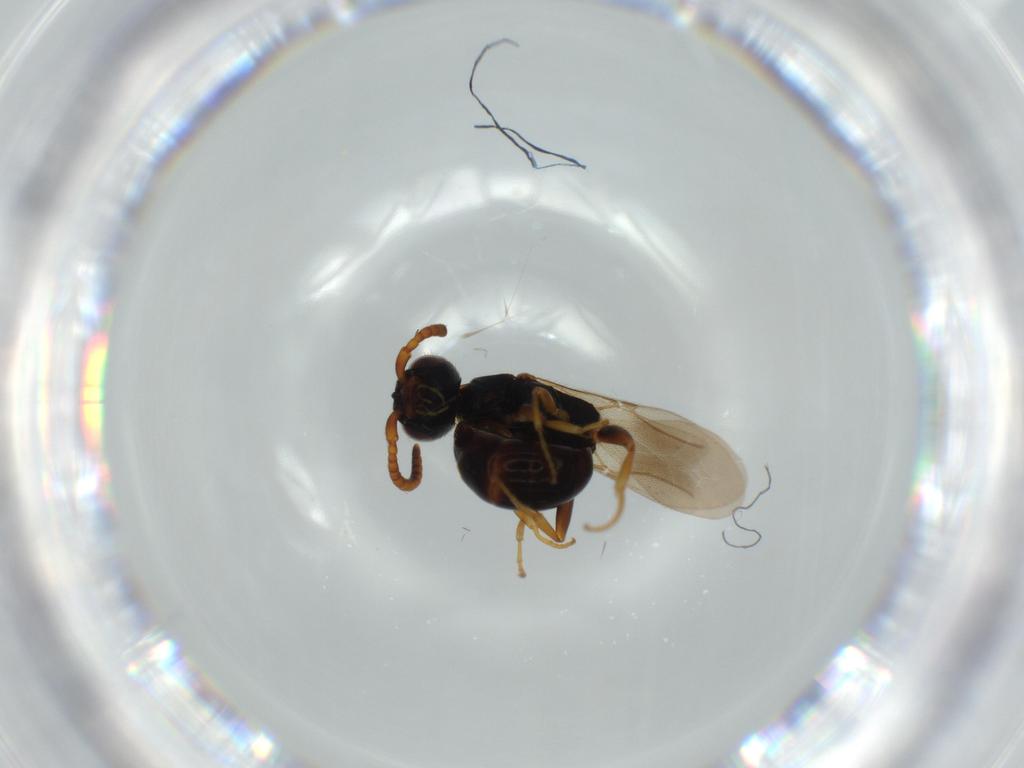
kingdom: Animalia
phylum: Arthropoda
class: Insecta
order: Hymenoptera
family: Bethylidae
